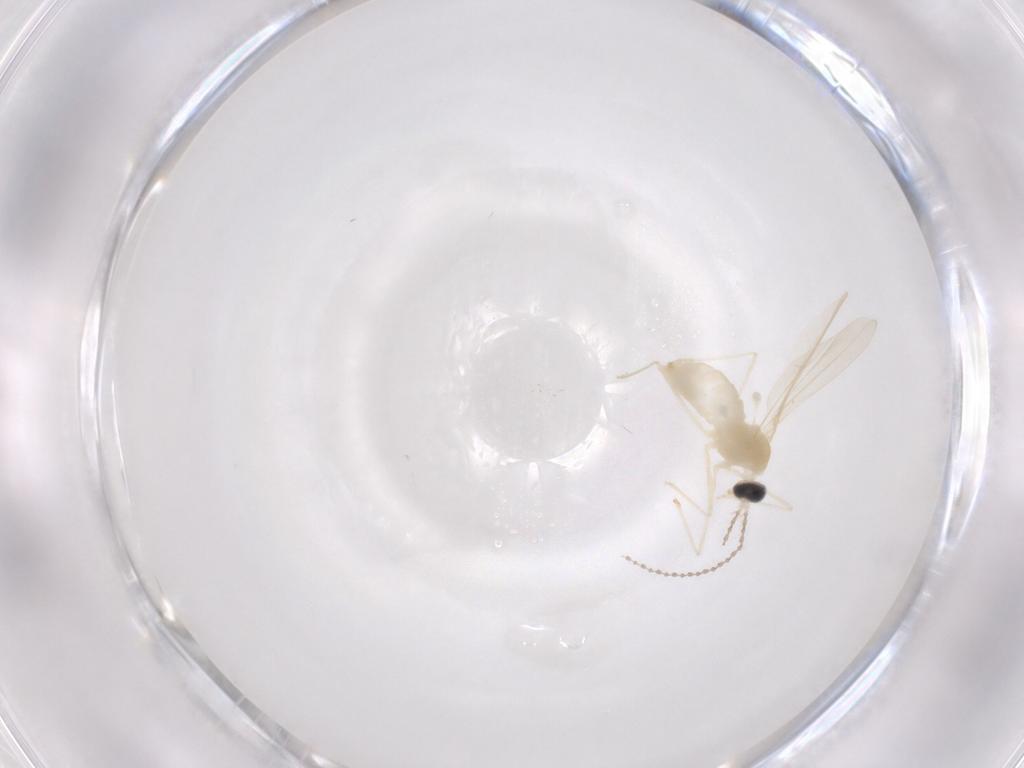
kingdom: Animalia
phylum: Arthropoda
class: Insecta
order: Diptera
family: Cecidomyiidae
